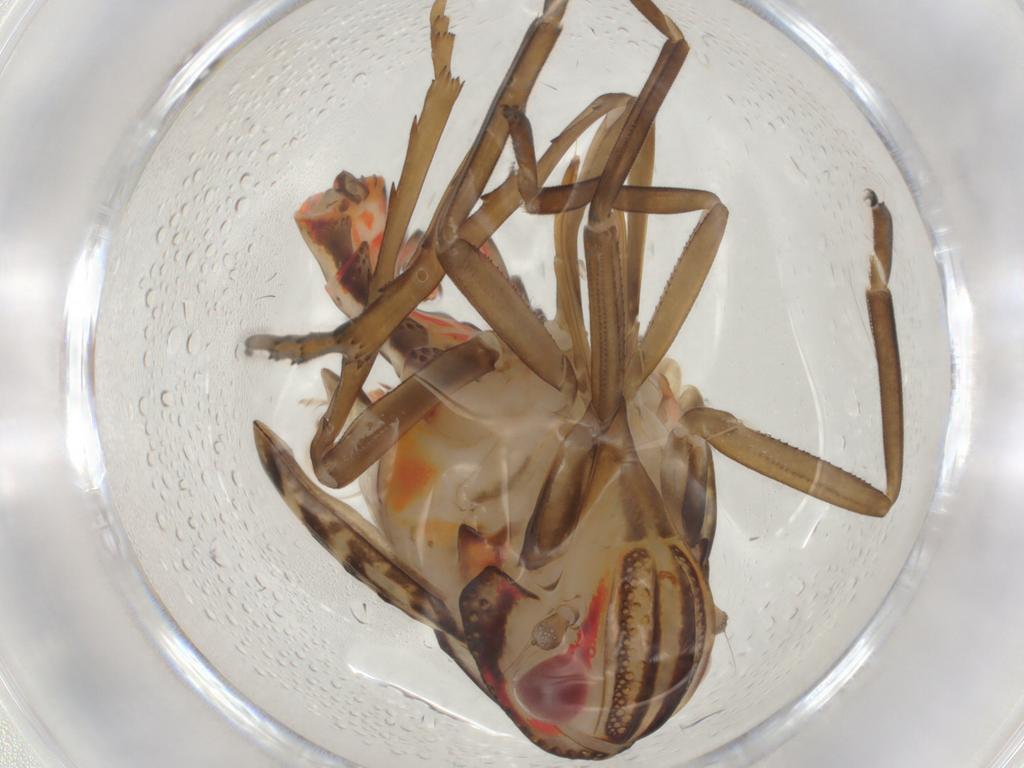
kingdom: Animalia
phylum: Arthropoda
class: Insecta
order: Hemiptera
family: Nogodinidae
